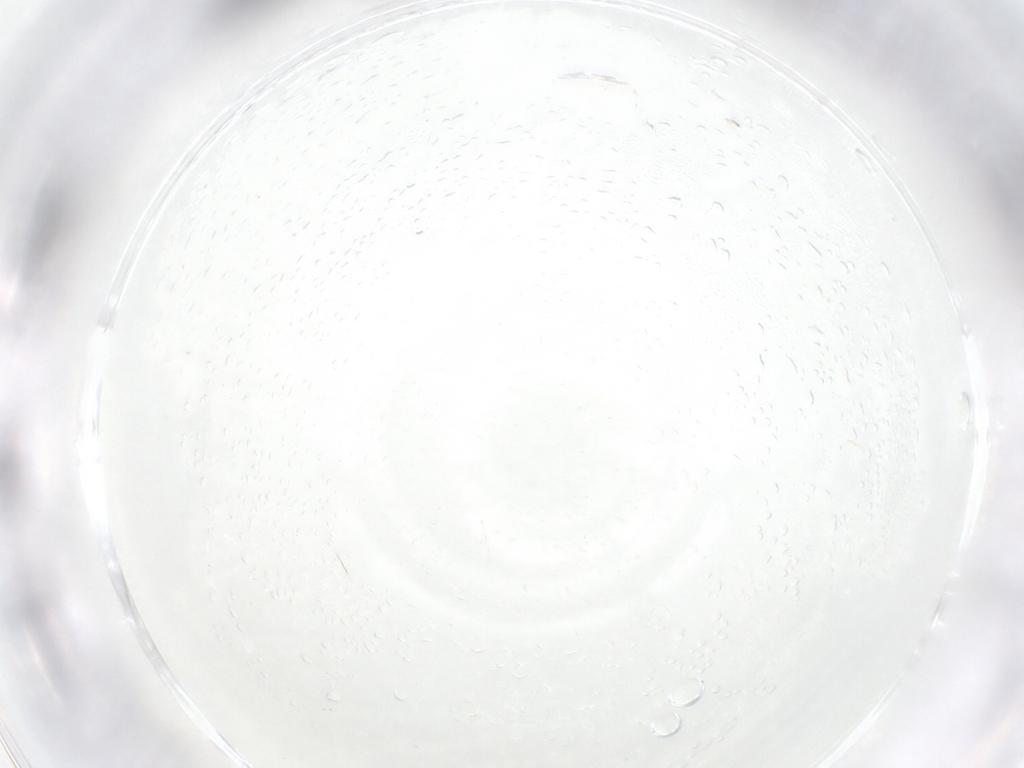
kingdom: Animalia
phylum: Arthropoda
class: Insecta
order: Diptera
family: Cecidomyiidae
